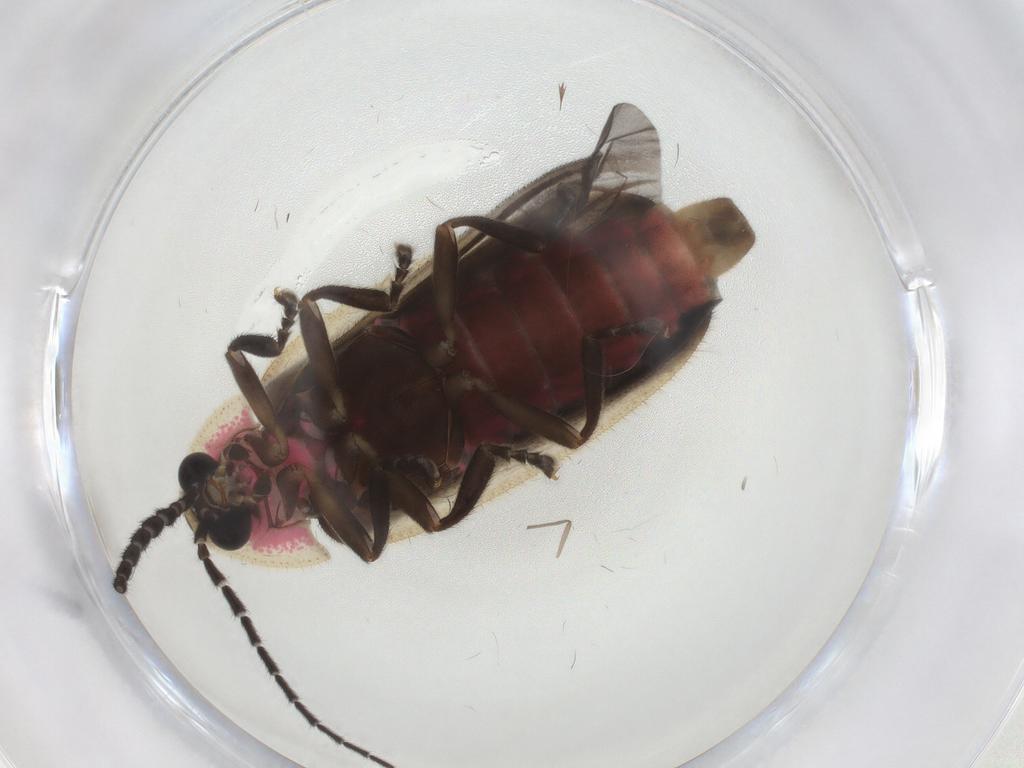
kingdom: Animalia
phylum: Arthropoda
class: Insecta
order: Coleoptera
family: Lampyridae
